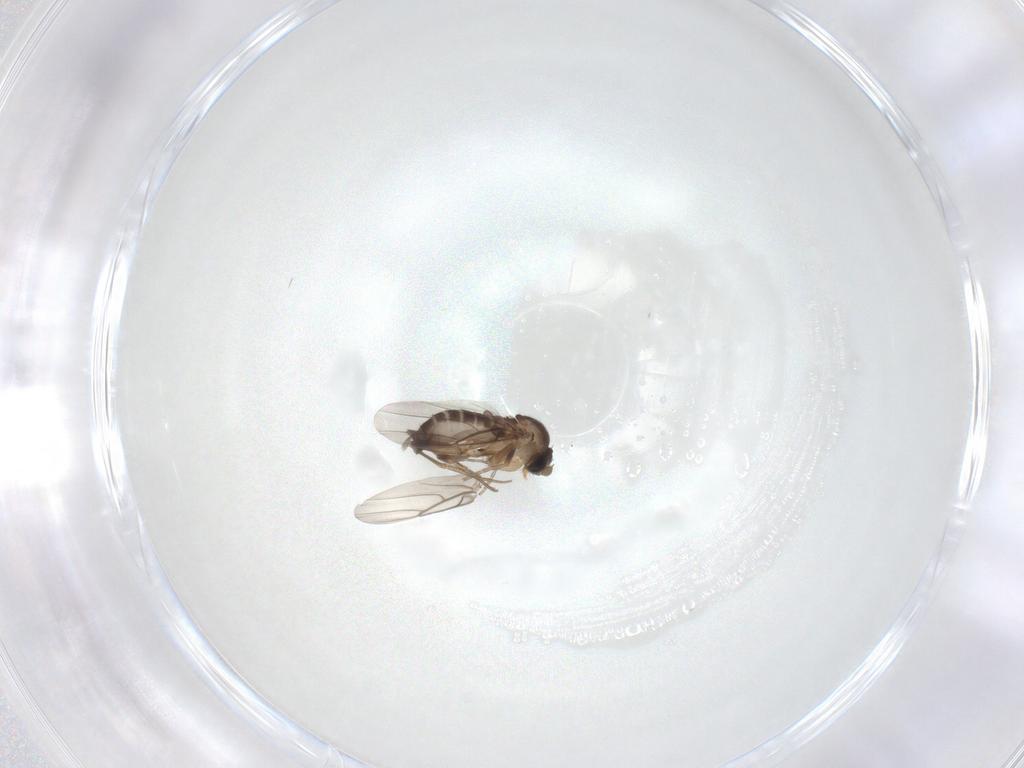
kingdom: Animalia
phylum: Arthropoda
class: Insecta
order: Diptera
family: Phoridae
